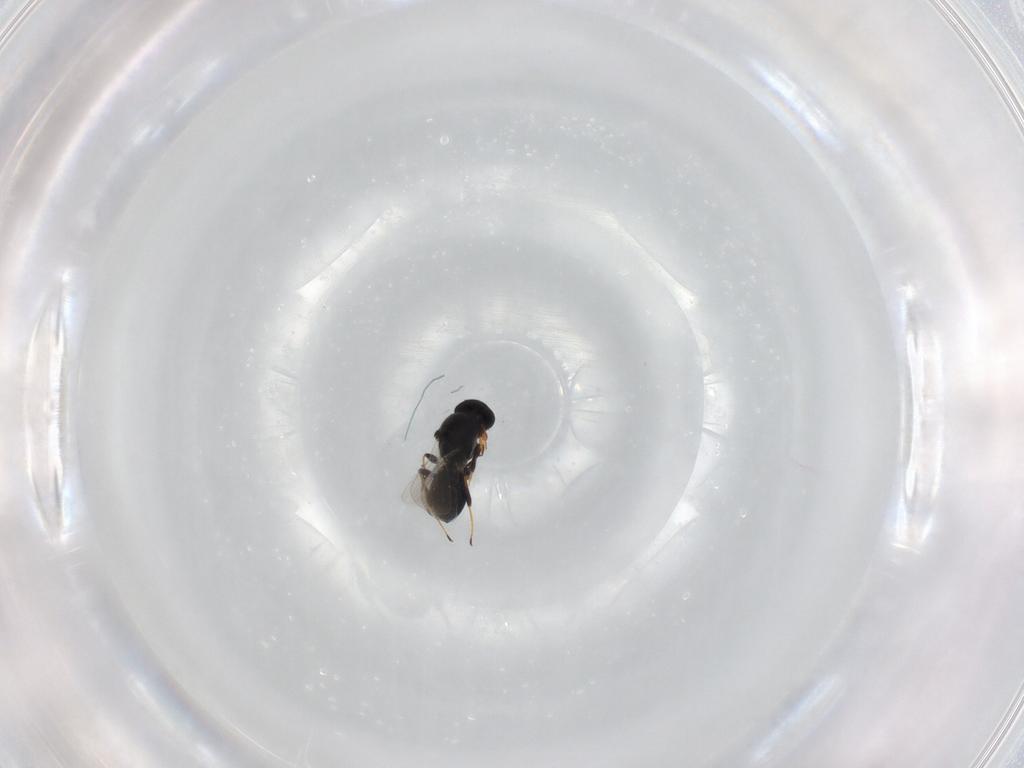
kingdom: Animalia
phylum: Arthropoda
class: Insecta
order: Hymenoptera
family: Platygastridae
